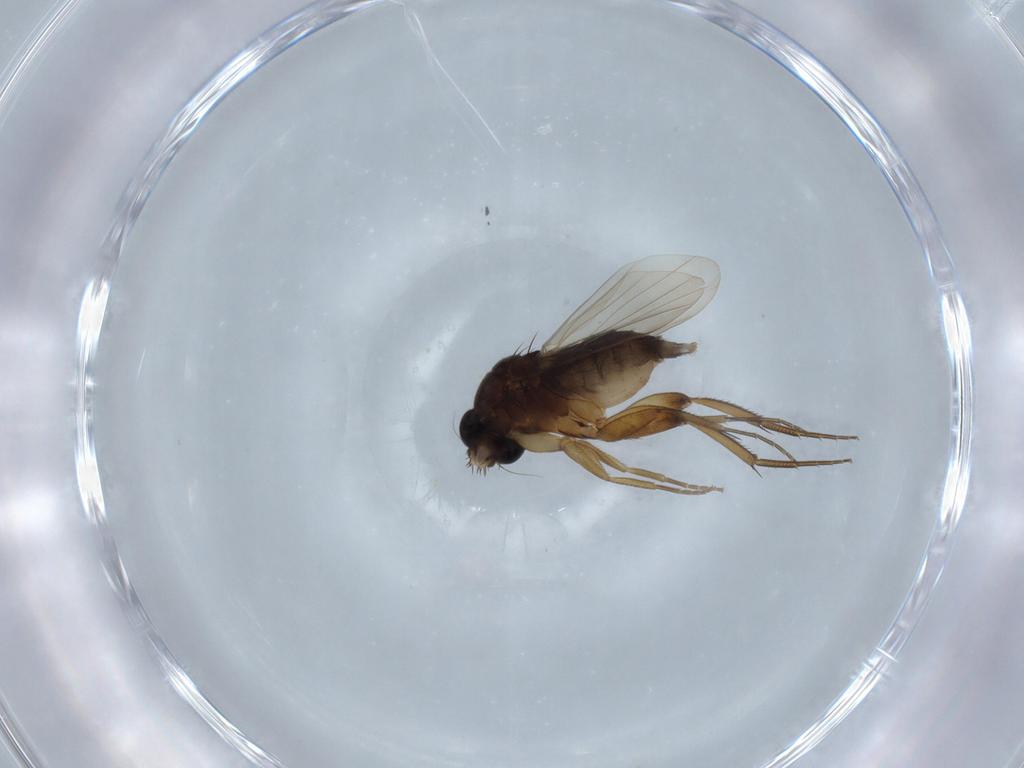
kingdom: Animalia
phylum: Arthropoda
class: Insecta
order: Diptera
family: Phoridae
